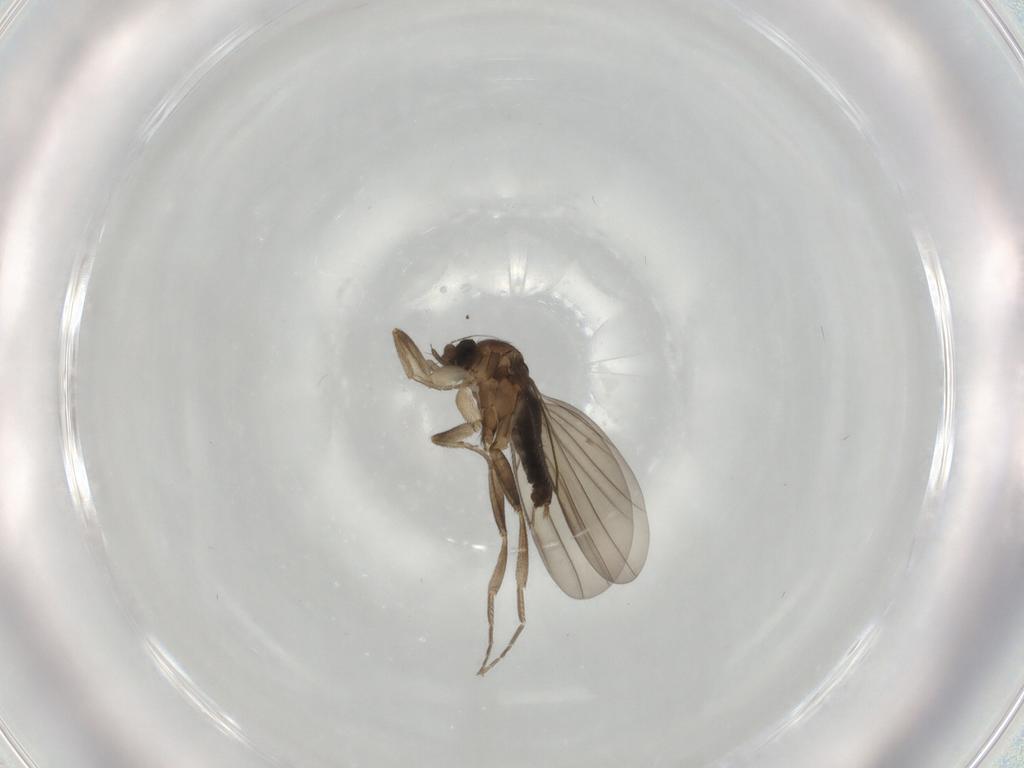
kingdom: Animalia
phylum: Arthropoda
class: Insecta
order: Diptera
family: Phoridae
